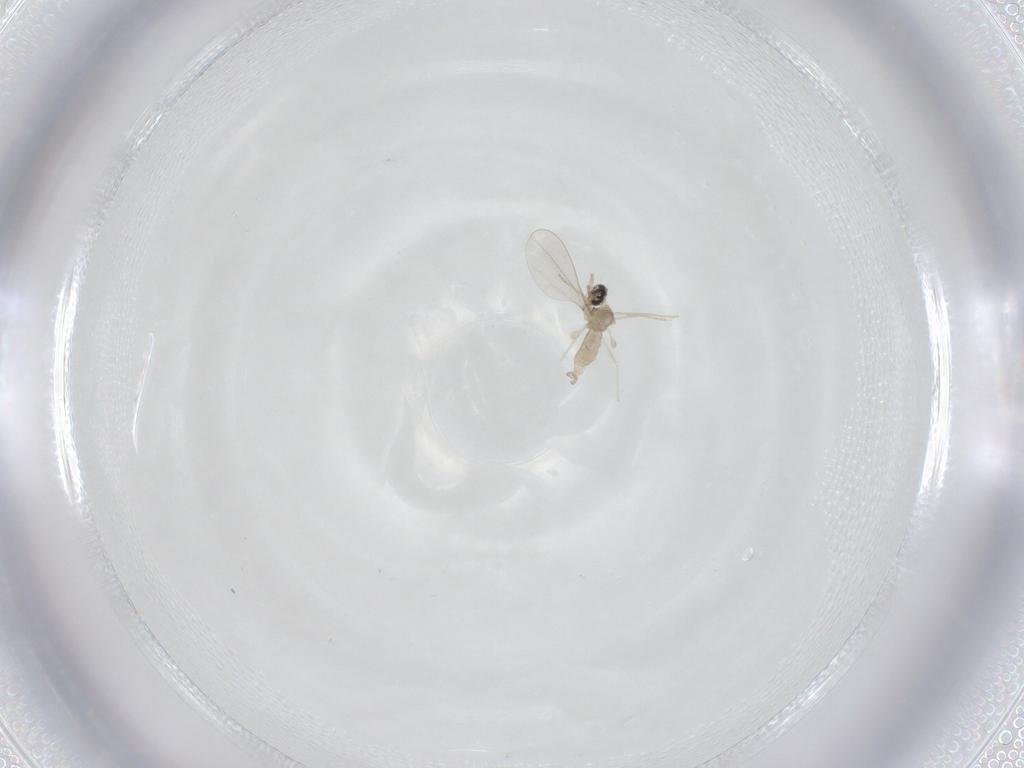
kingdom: Animalia
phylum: Arthropoda
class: Insecta
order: Diptera
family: Sciaridae
